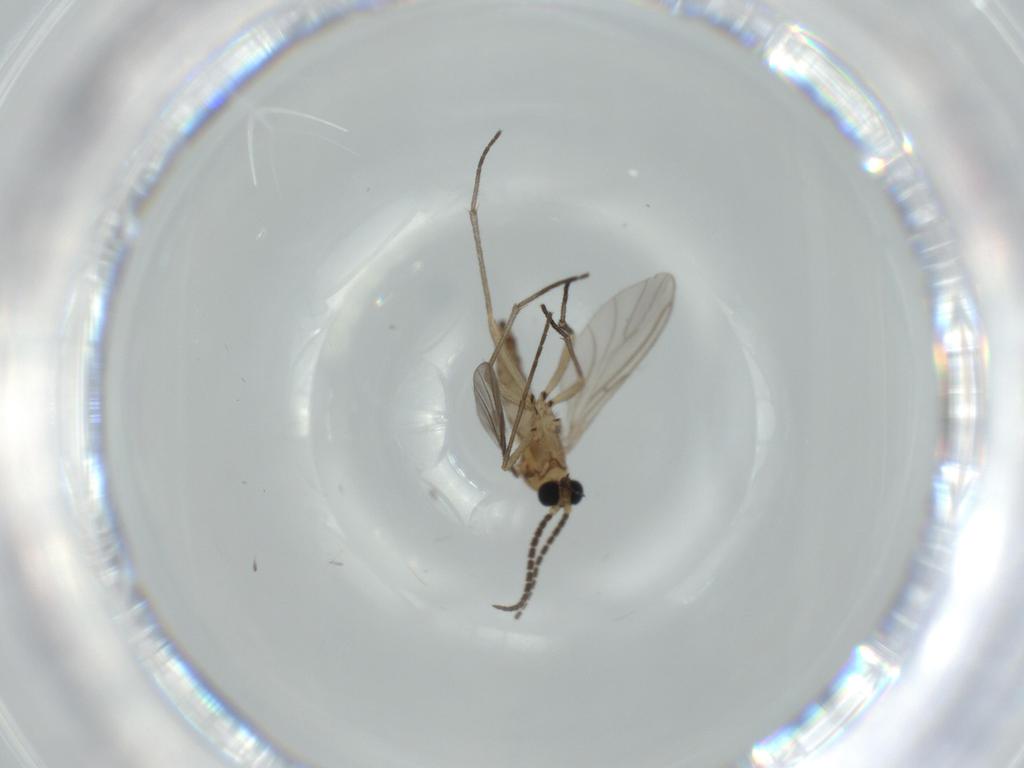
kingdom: Animalia
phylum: Arthropoda
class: Insecta
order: Diptera
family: Sciaridae
